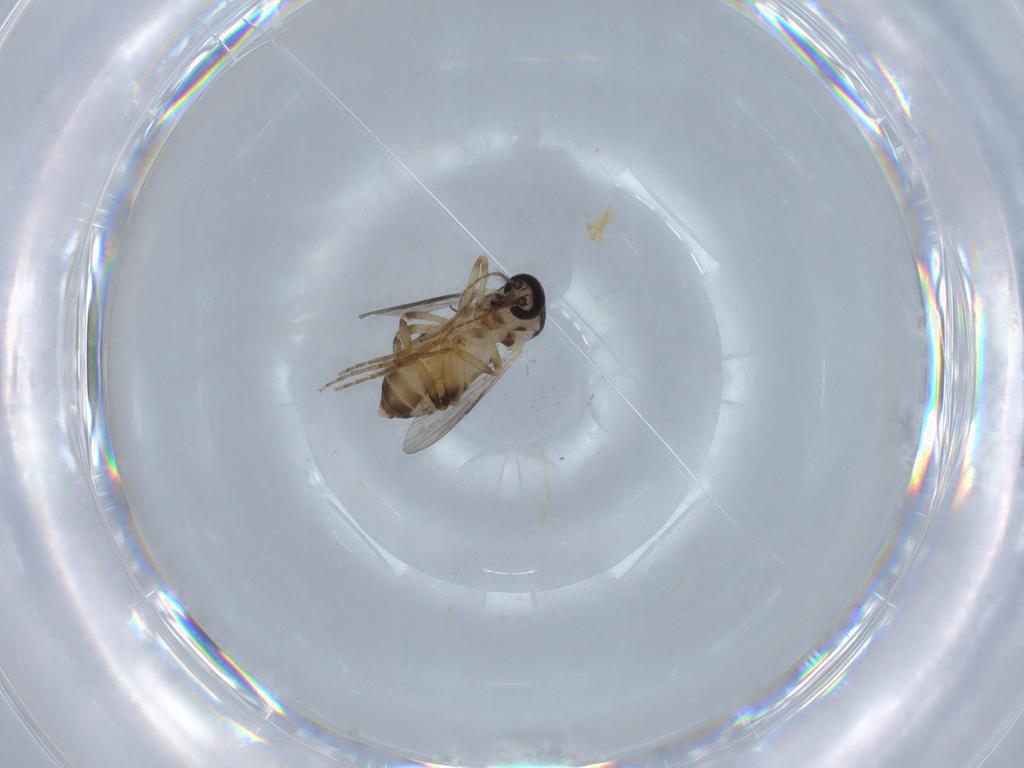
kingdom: Animalia
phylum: Arthropoda
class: Insecta
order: Diptera
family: Ceratopogonidae
